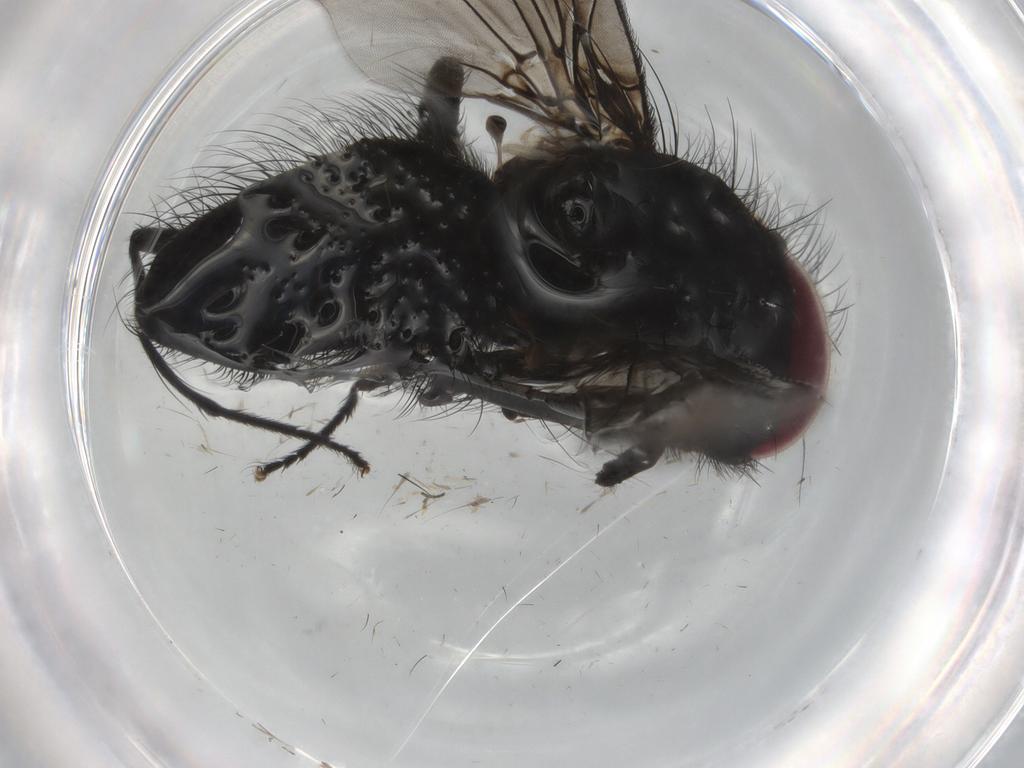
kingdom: Animalia
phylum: Arthropoda
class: Insecta
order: Diptera
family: Fannia
